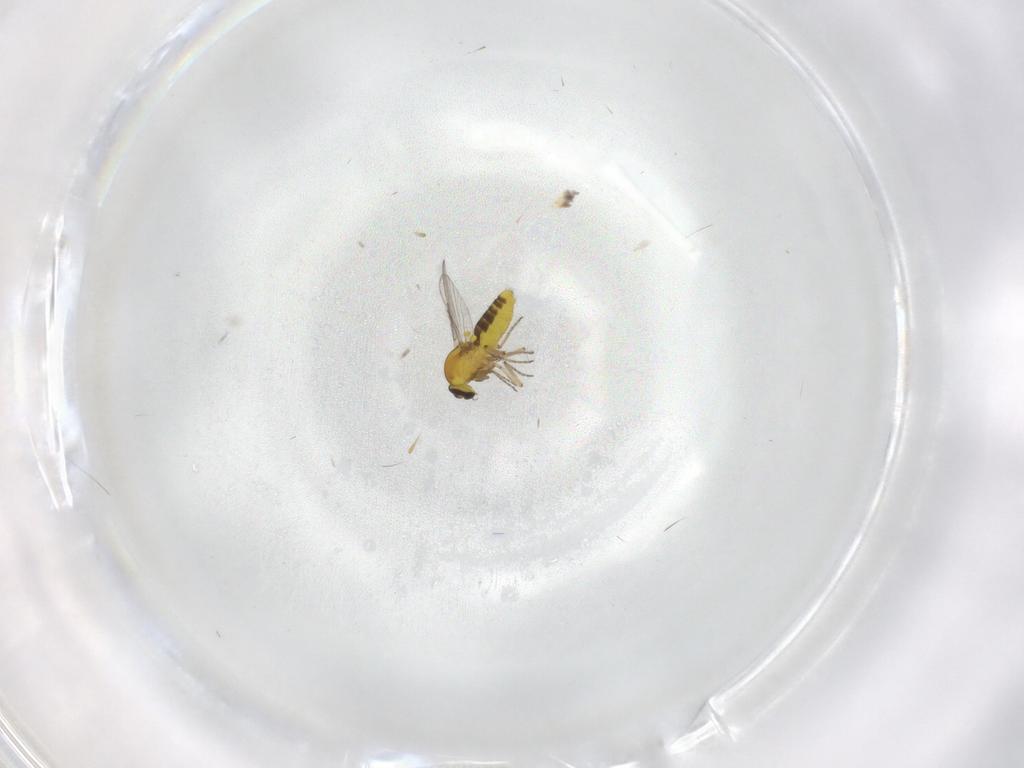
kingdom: Animalia
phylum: Arthropoda
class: Insecta
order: Diptera
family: Ceratopogonidae
